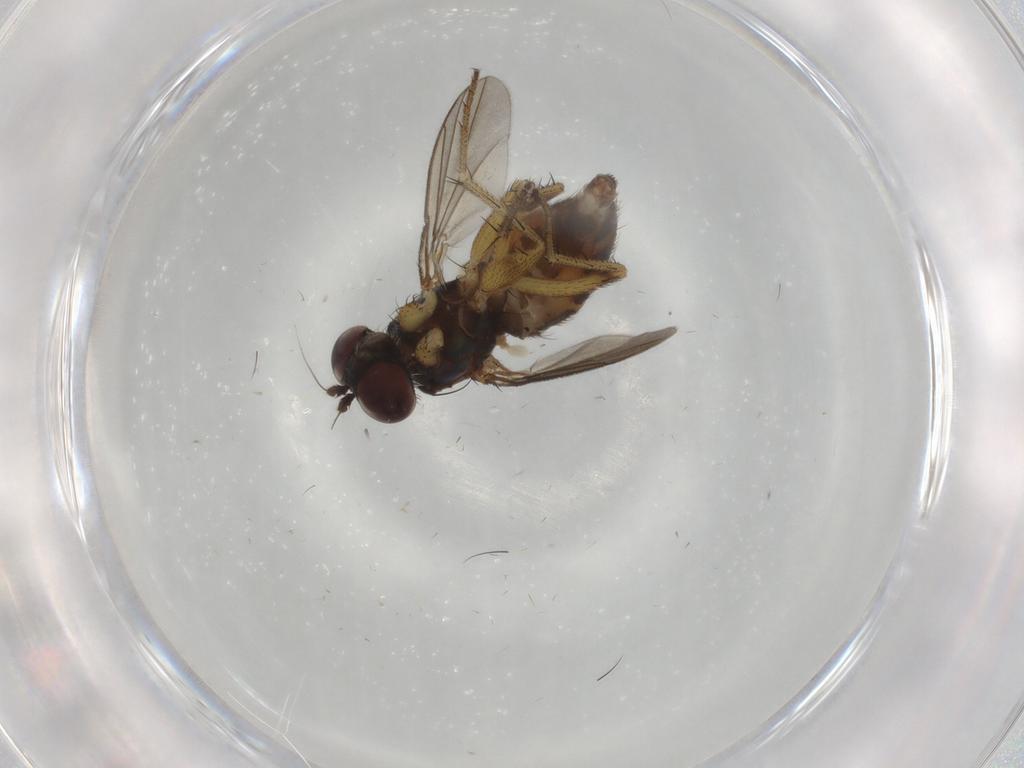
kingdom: Animalia
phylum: Arthropoda
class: Insecta
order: Diptera
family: Dolichopodidae
